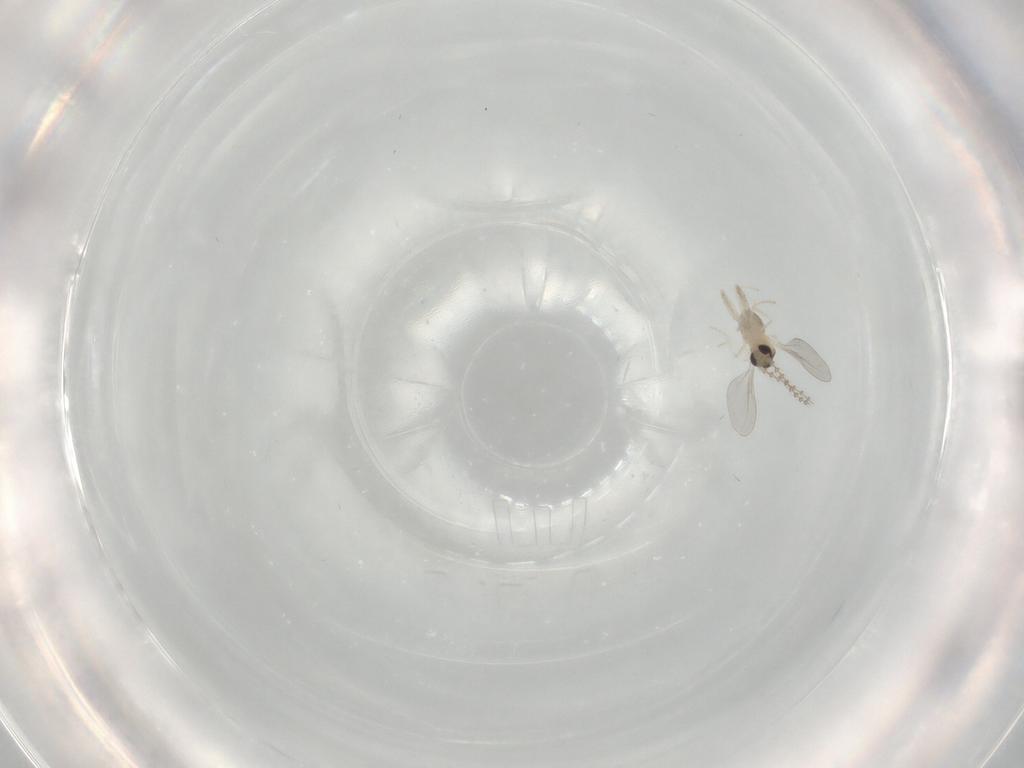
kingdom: Animalia
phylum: Arthropoda
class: Insecta
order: Diptera
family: Cecidomyiidae
